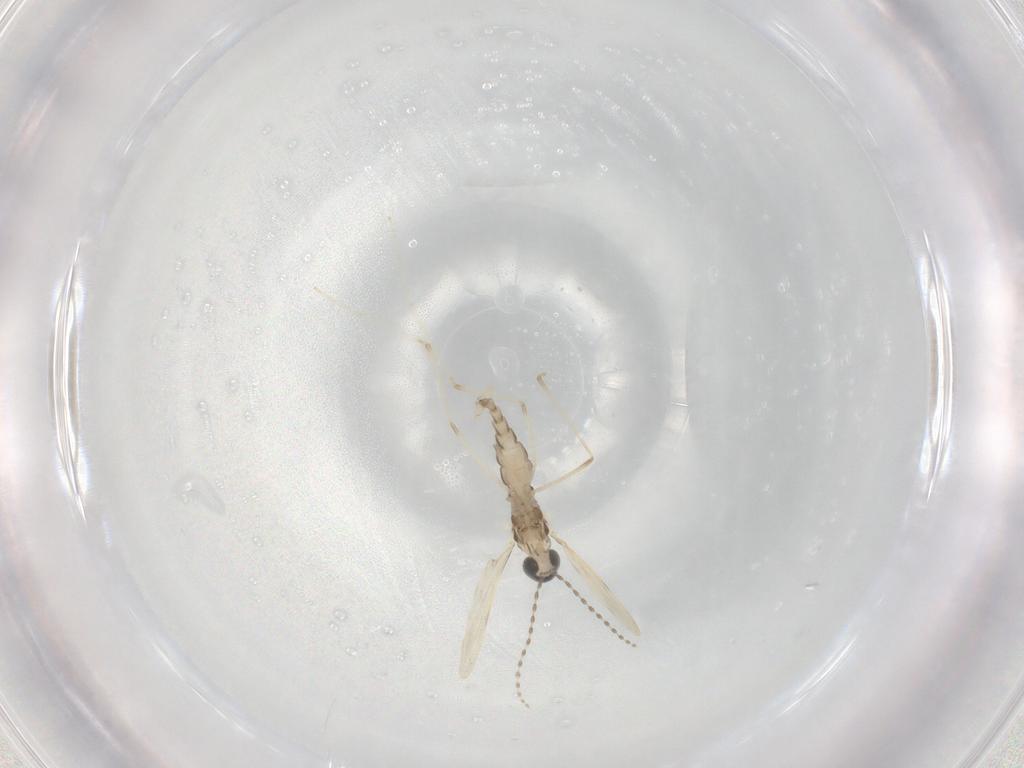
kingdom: Animalia
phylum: Arthropoda
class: Insecta
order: Diptera
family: Cecidomyiidae
